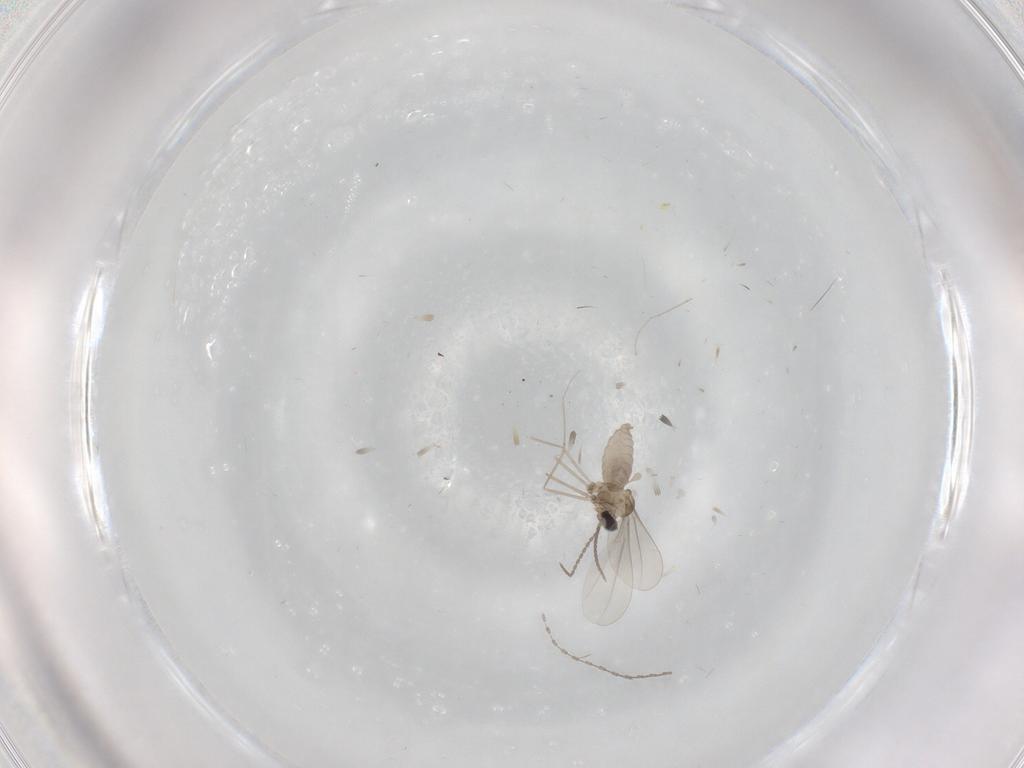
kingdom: Animalia
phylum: Arthropoda
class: Insecta
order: Diptera
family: Cecidomyiidae
